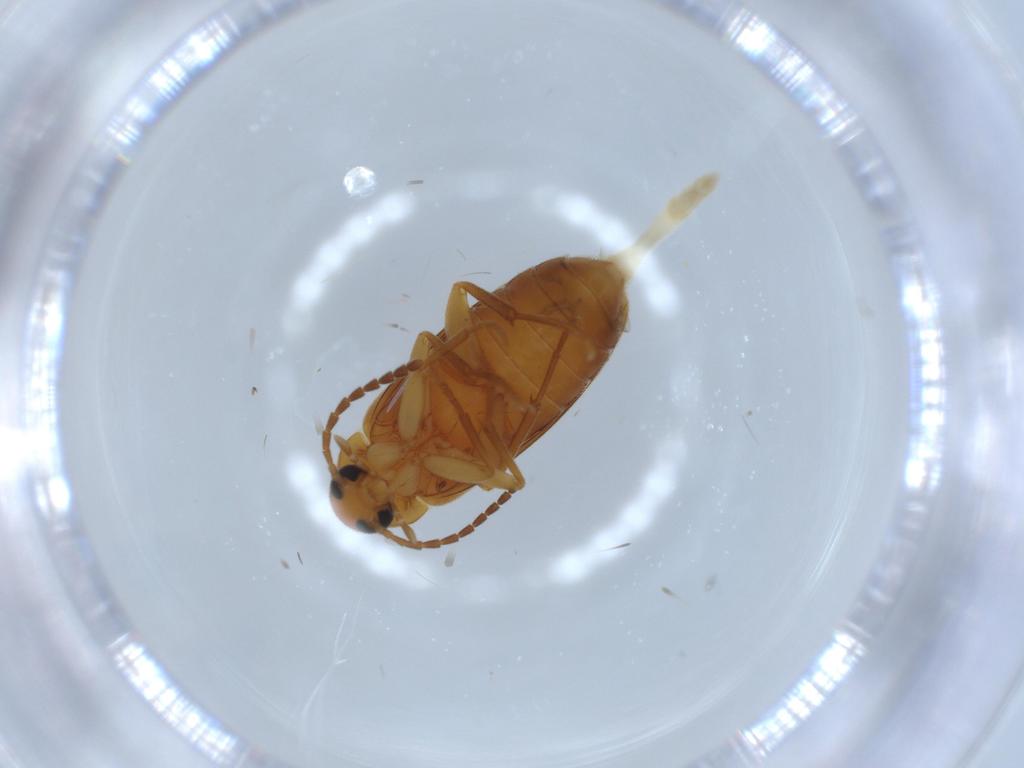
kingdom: Animalia
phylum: Arthropoda
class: Insecta
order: Coleoptera
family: Scraptiidae
